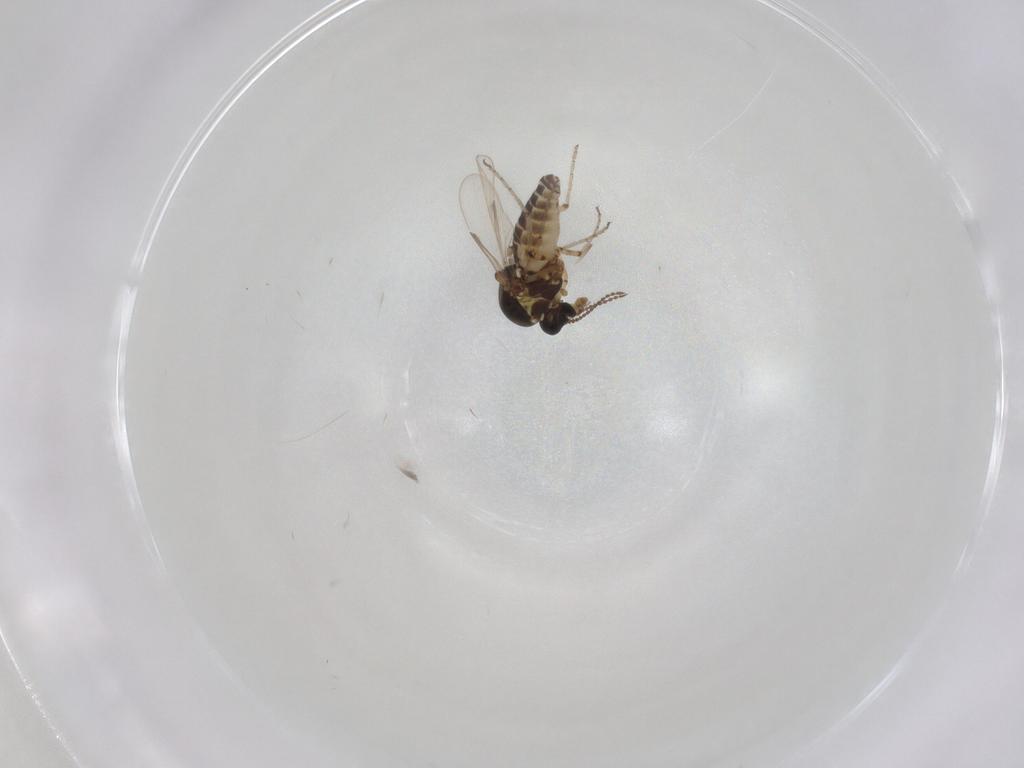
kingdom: Animalia
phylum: Arthropoda
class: Insecta
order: Diptera
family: Ceratopogonidae
